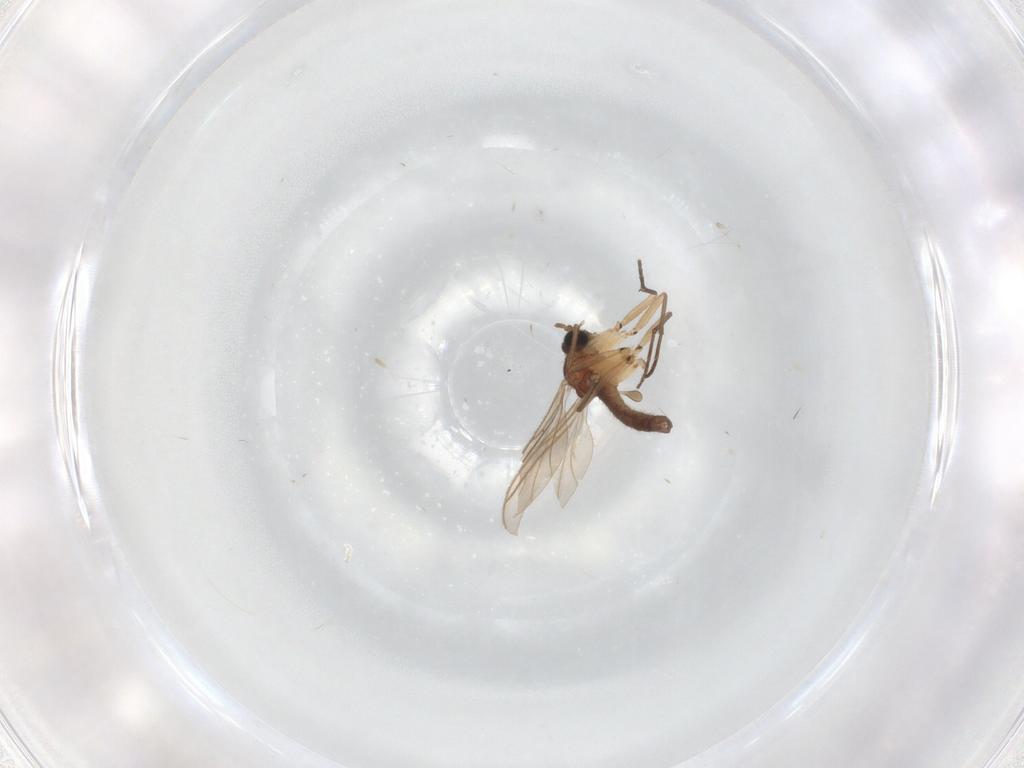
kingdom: Animalia
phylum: Arthropoda
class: Insecta
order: Diptera
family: Sciaridae
